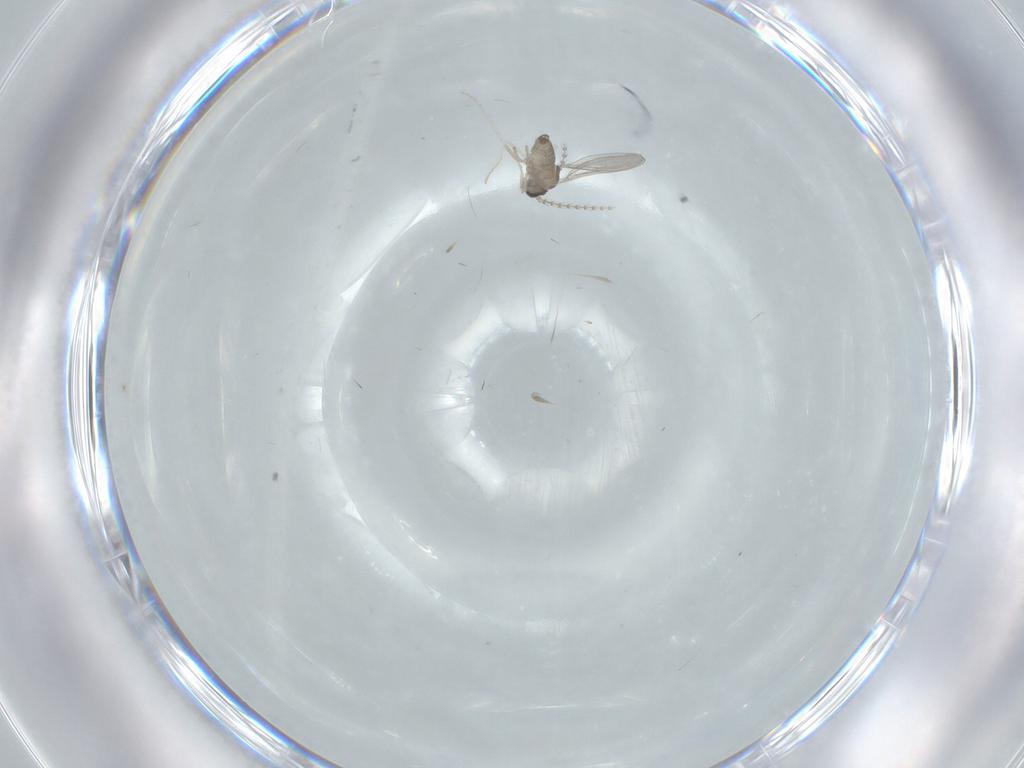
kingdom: Animalia
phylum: Arthropoda
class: Insecta
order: Diptera
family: Cecidomyiidae
